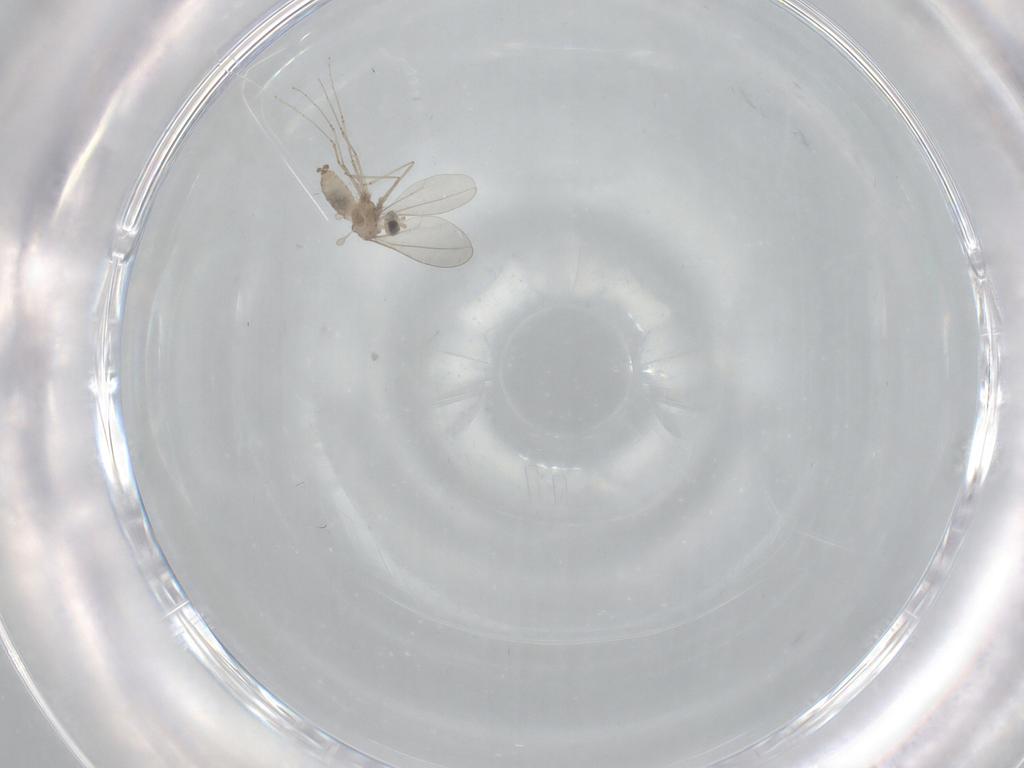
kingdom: Animalia
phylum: Arthropoda
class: Insecta
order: Diptera
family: Cecidomyiidae
